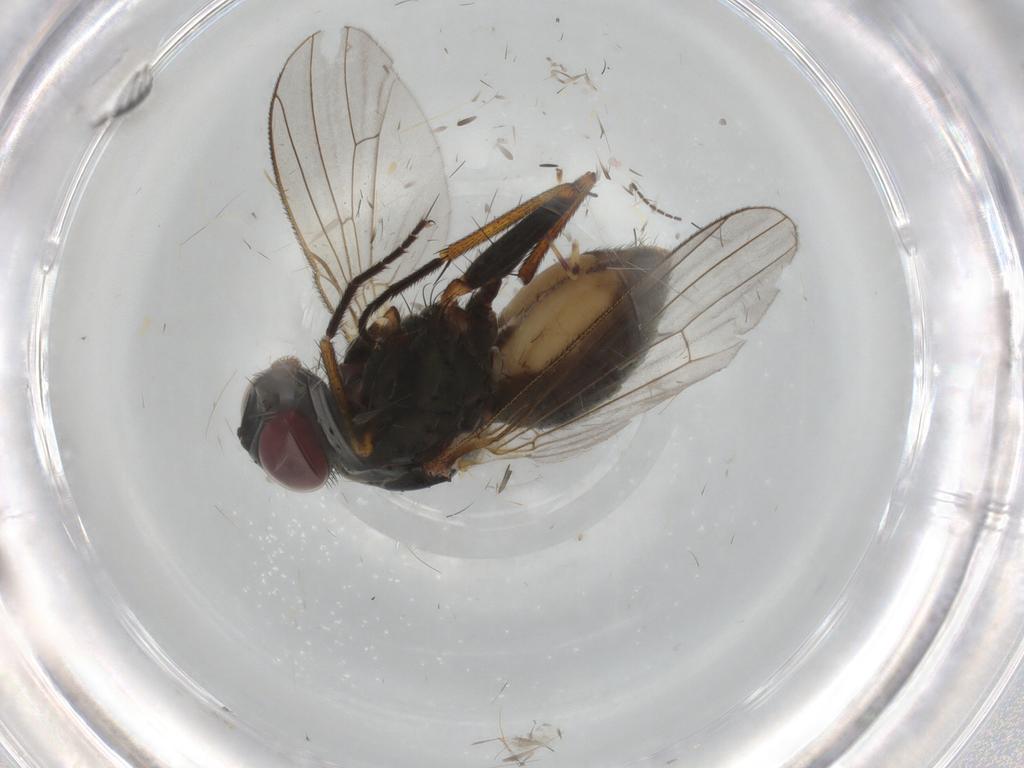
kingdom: Animalia
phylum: Arthropoda
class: Insecta
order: Diptera
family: Muscidae
